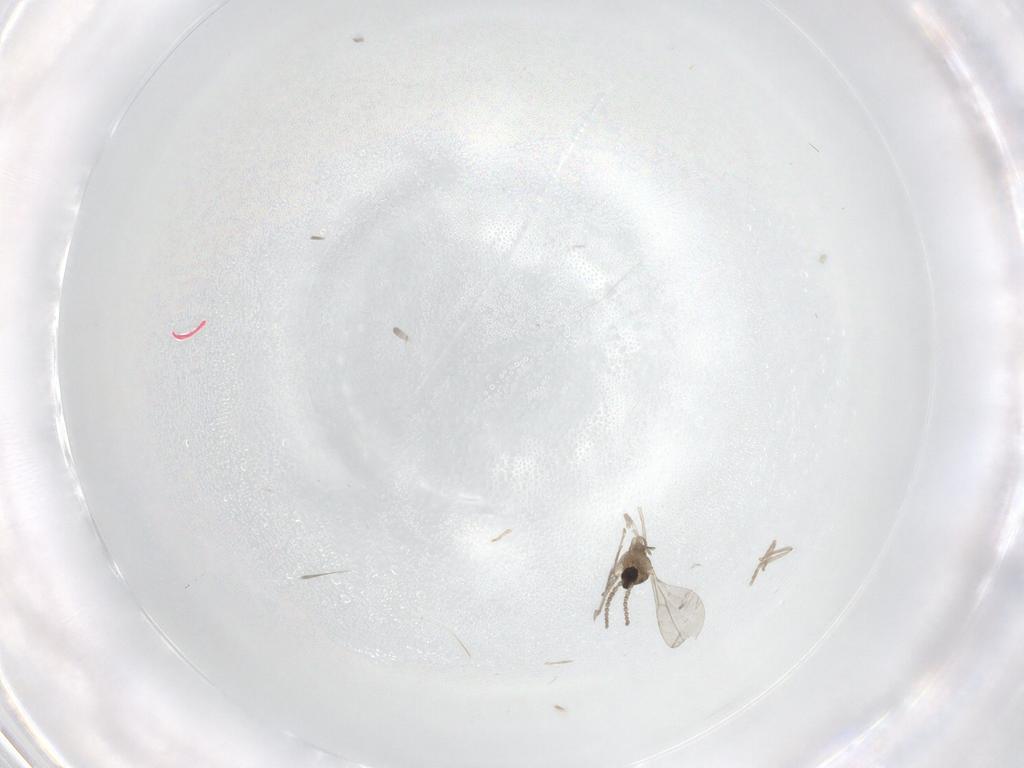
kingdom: Animalia
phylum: Arthropoda
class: Insecta
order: Diptera
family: Cecidomyiidae
